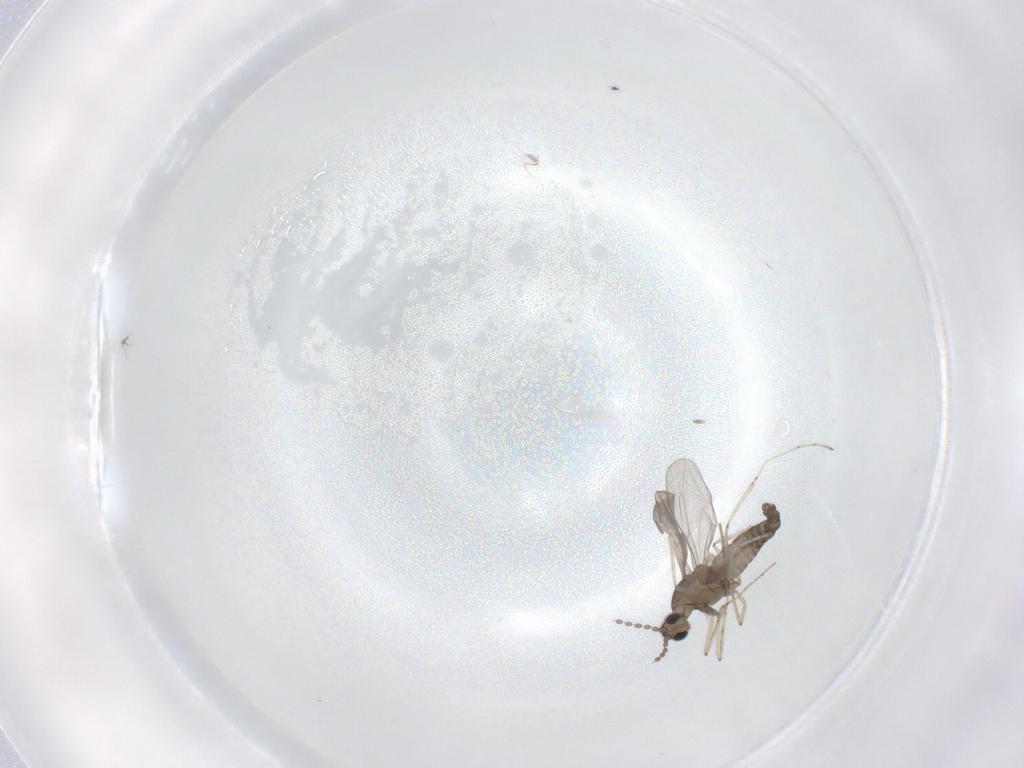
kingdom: Animalia
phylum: Arthropoda
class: Insecta
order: Diptera
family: Cecidomyiidae
